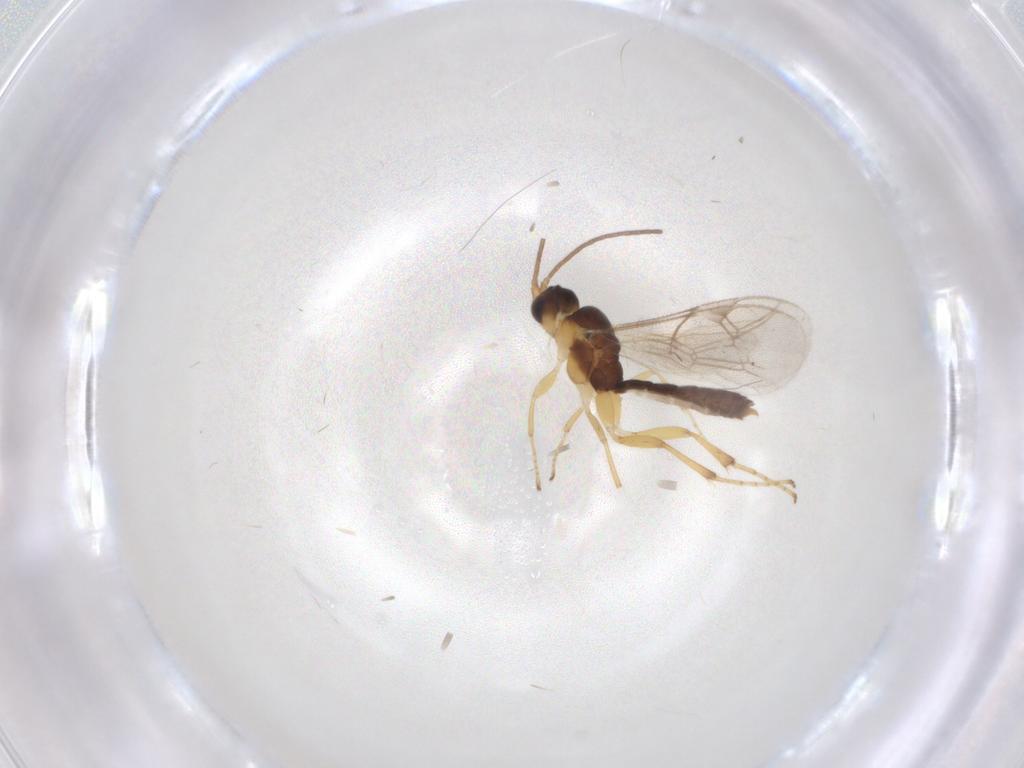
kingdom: Animalia
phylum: Arthropoda
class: Insecta
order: Hymenoptera
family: Ichneumonidae
